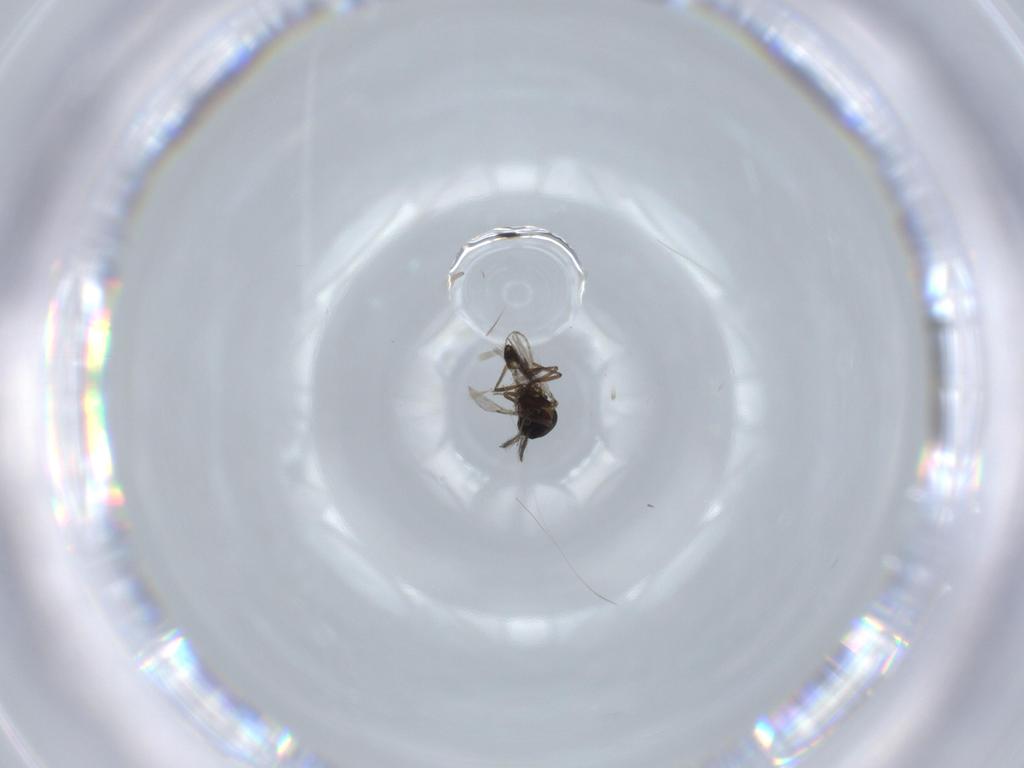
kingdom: Animalia
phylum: Arthropoda
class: Insecta
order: Diptera
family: Ceratopogonidae
